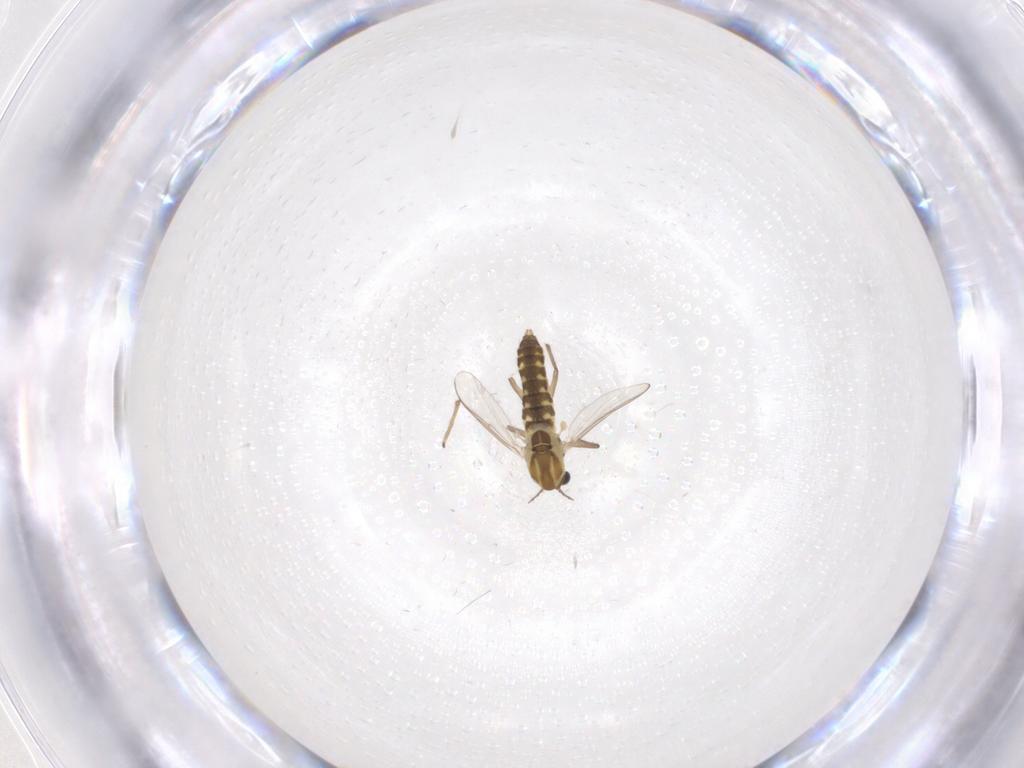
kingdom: Animalia
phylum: Arthropoda
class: Insecta
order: Diptera
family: Chironomidae
